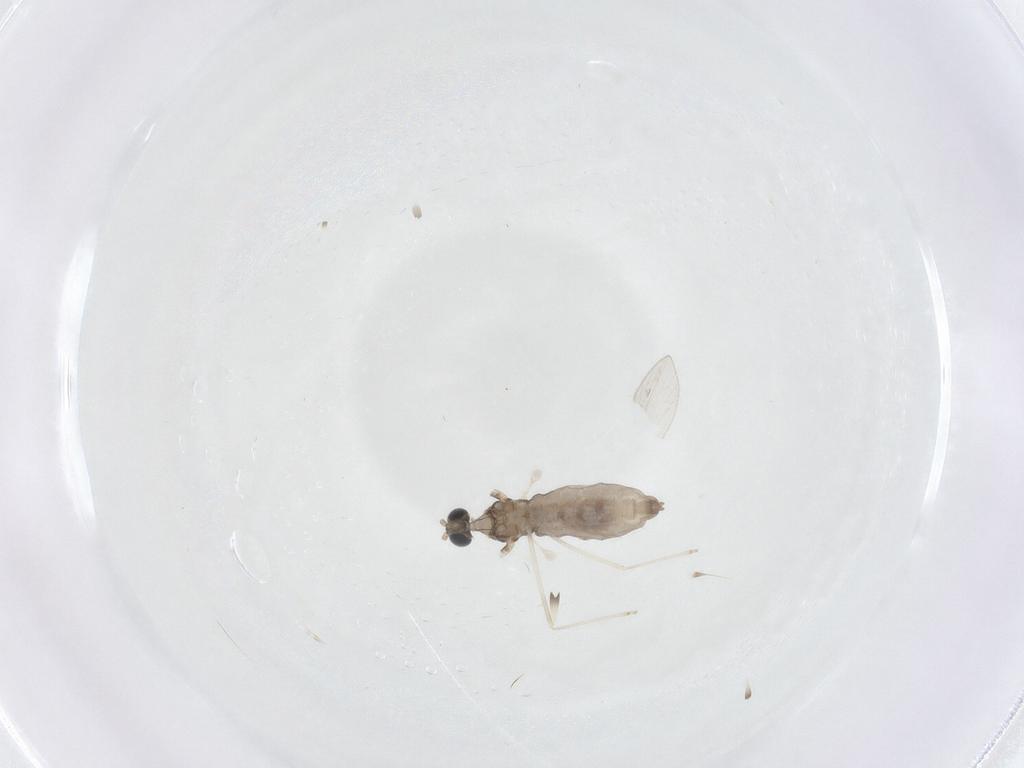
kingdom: Animalia
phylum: Arthropoda
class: Insecta
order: Diptera
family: Cecidomyiidae
